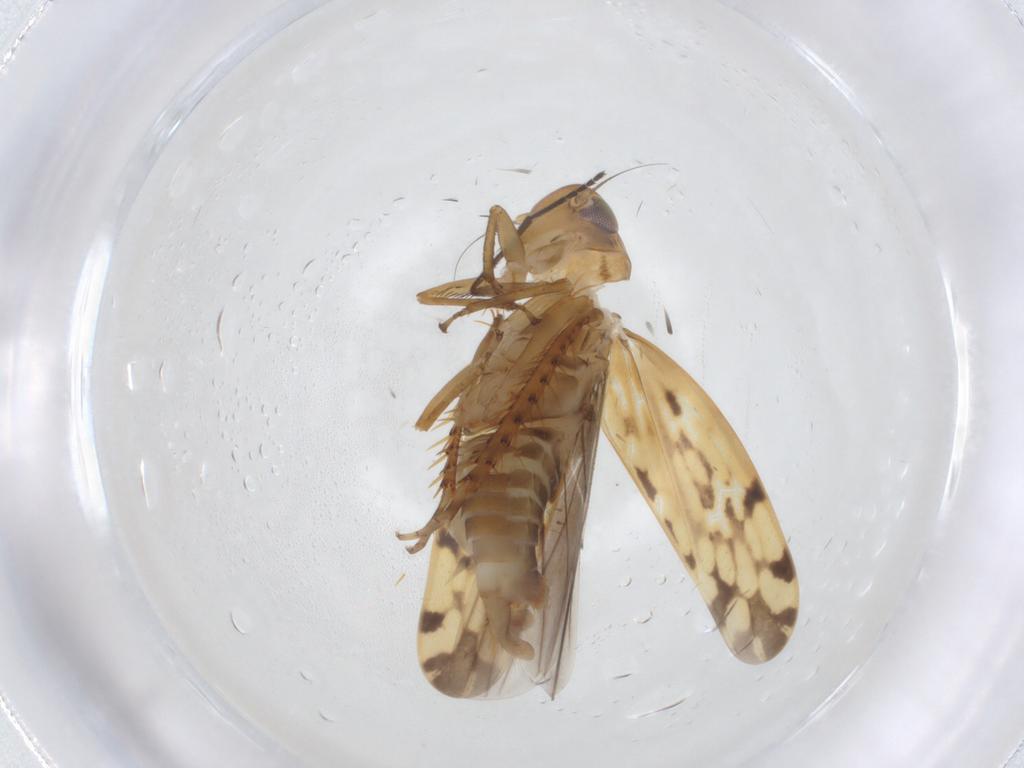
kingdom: Animalia
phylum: Arthropoda
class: Insecta
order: Hemiptera
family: Cicadellidae
